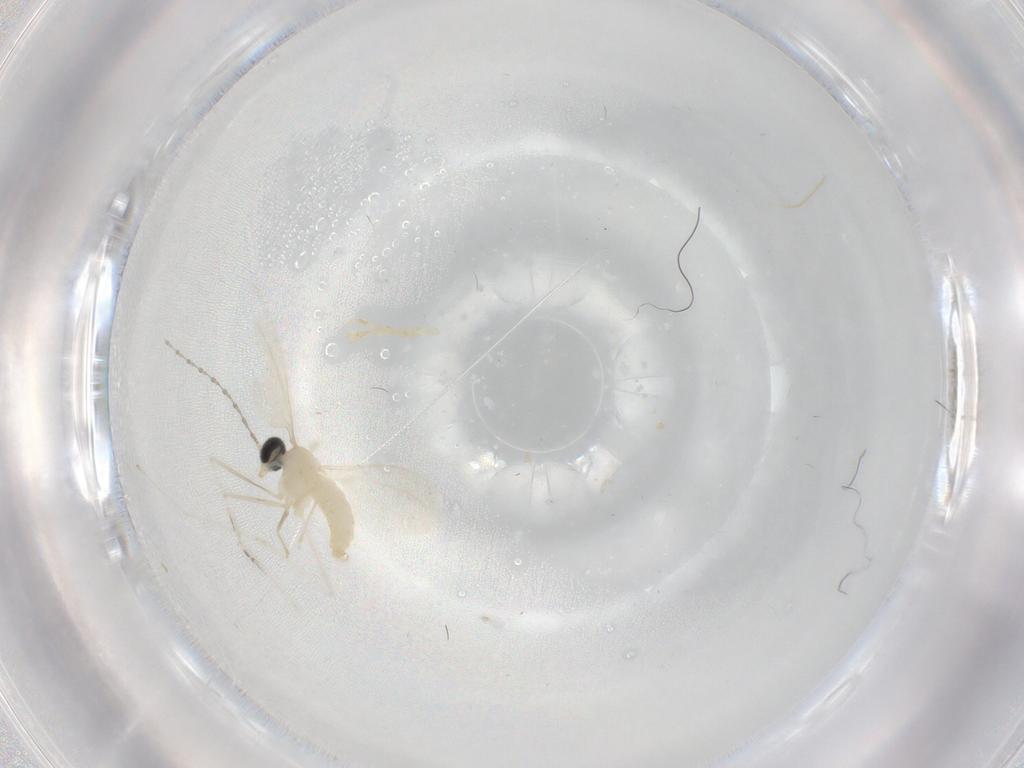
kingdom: Animalia
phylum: Arthropoda
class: Insecta
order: Diptera
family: Cecidomyiidae
